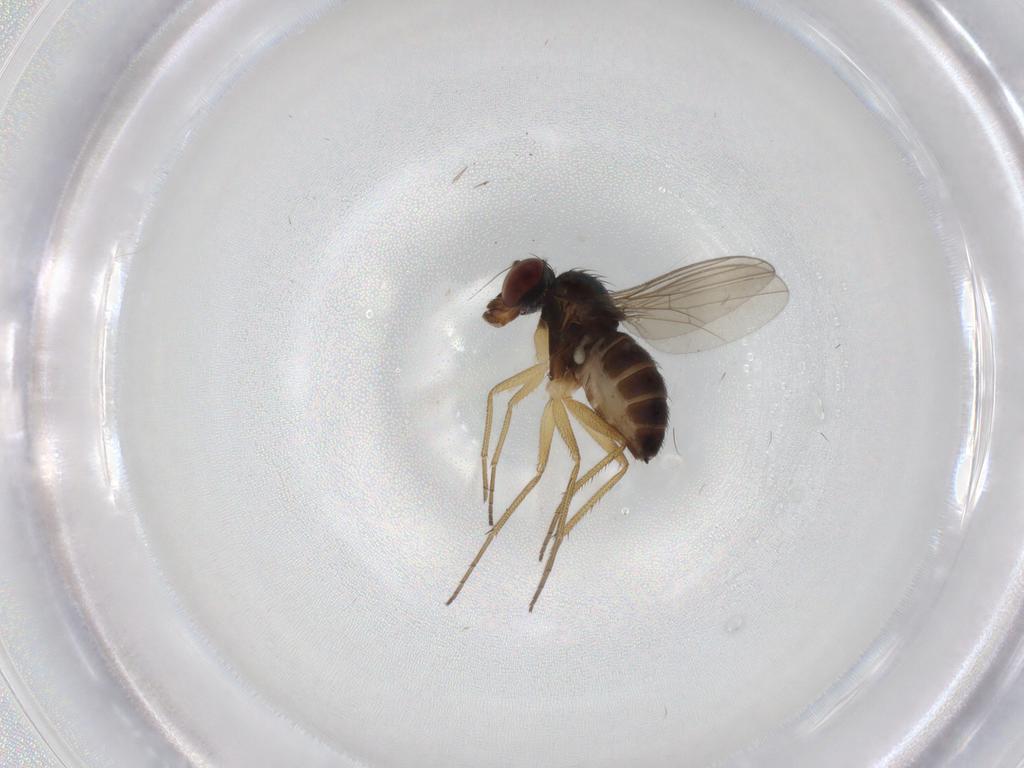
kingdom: Animalia
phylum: Arthropoda
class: Insecta
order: Diptera
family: Dolichopodidae
